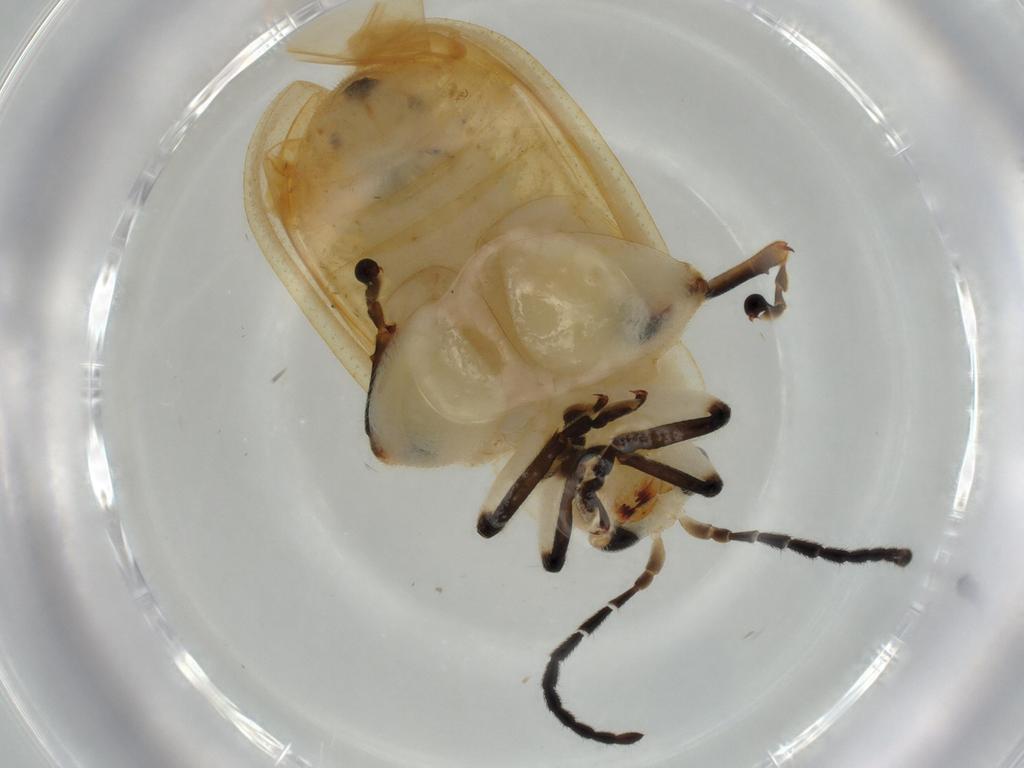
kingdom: Animalia
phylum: Arthropoda
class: Insecta
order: Coleoptera
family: Chrysomelidae
